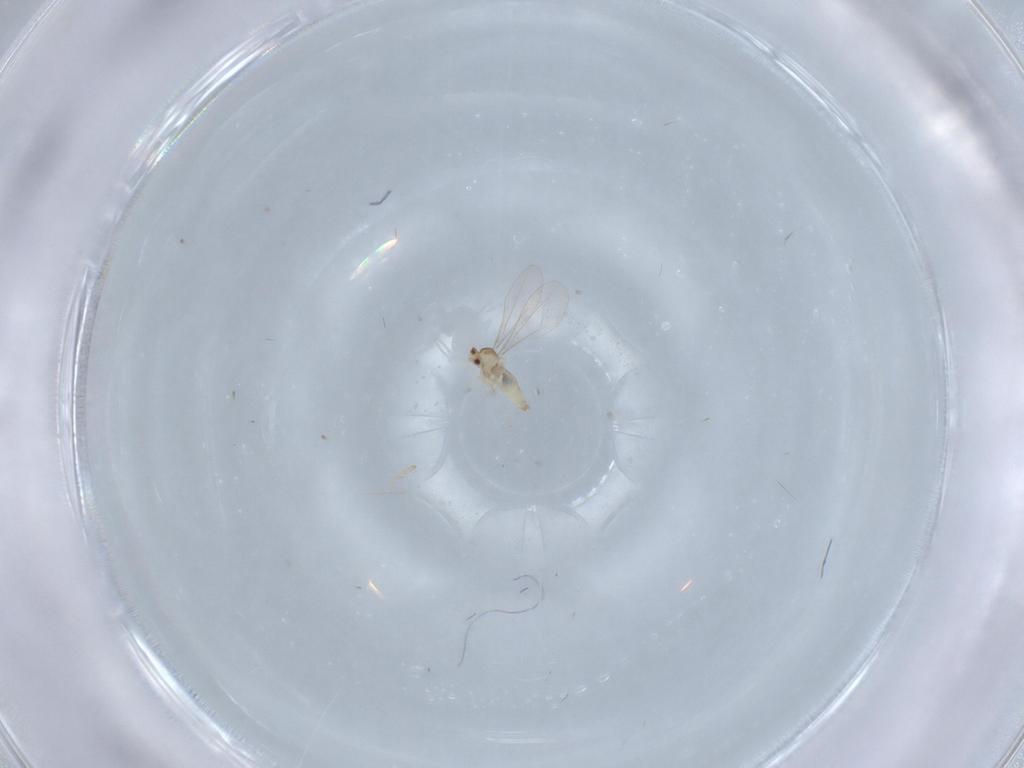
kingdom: Animalia
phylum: Arthropoda
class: Insecta
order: Diptera
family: Cecidomyiidae
